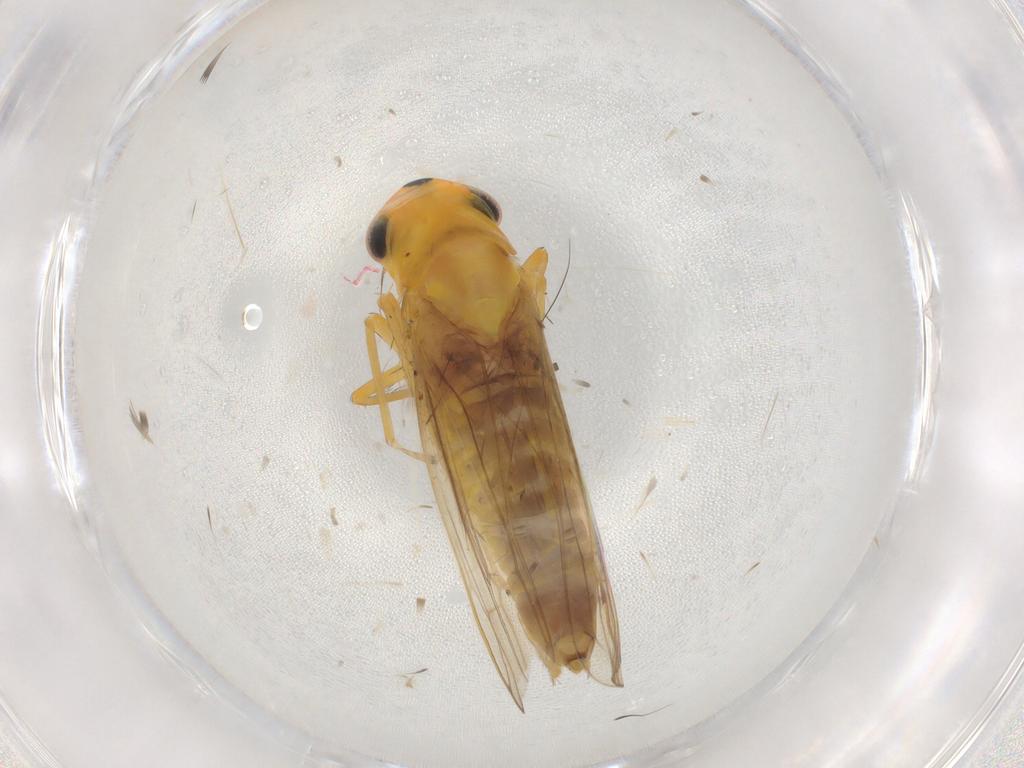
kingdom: Animalia
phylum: Arthropoda
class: Insecta
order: Hemiptera
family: Cicadellidae
